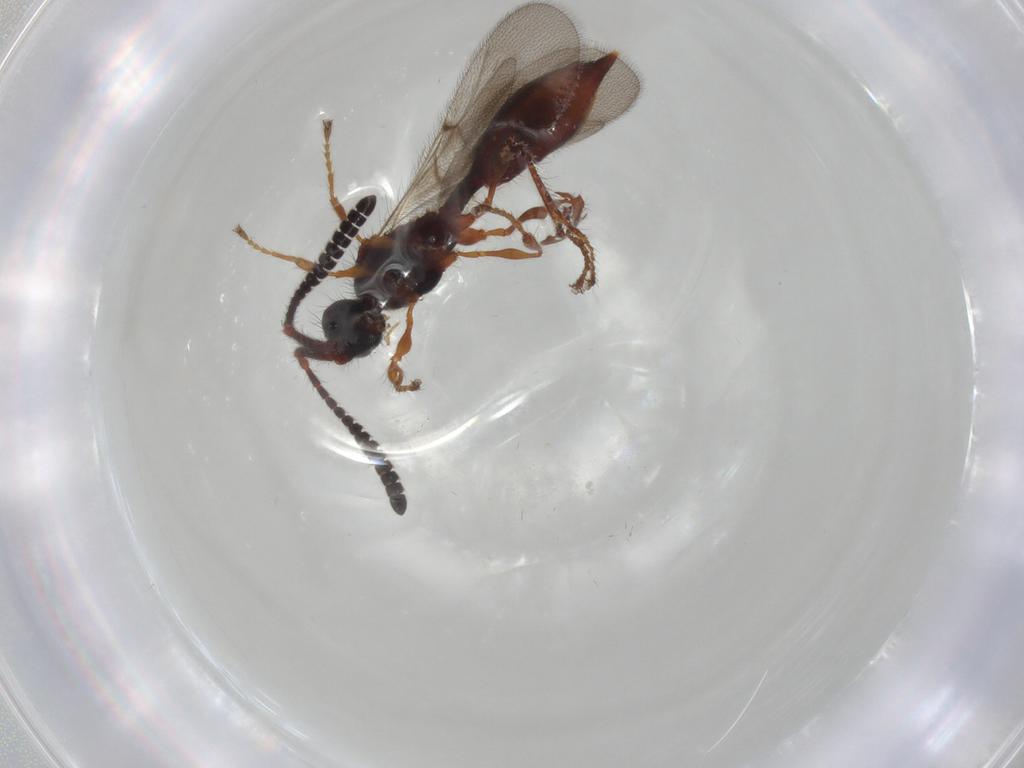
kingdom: Animalia
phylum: Arthropoda
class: Insecta
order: Hymenoptera
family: Diapriidae
